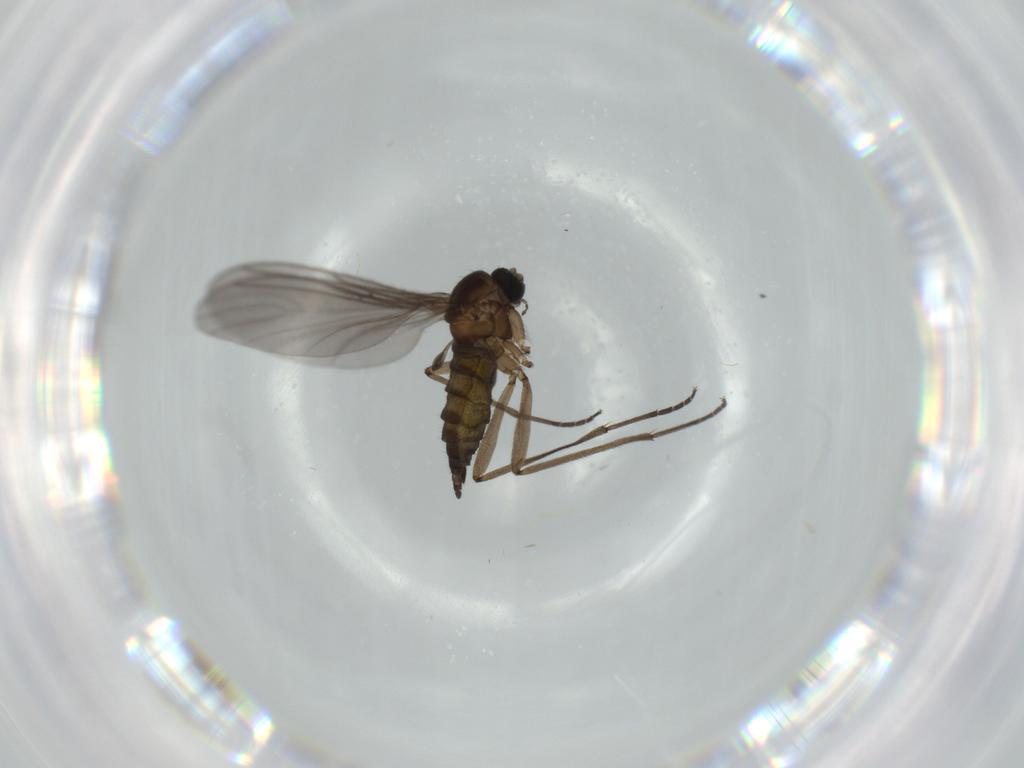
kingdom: Animalia
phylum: Arthropoda
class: Insecta
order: Diptera
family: Sciaridae
